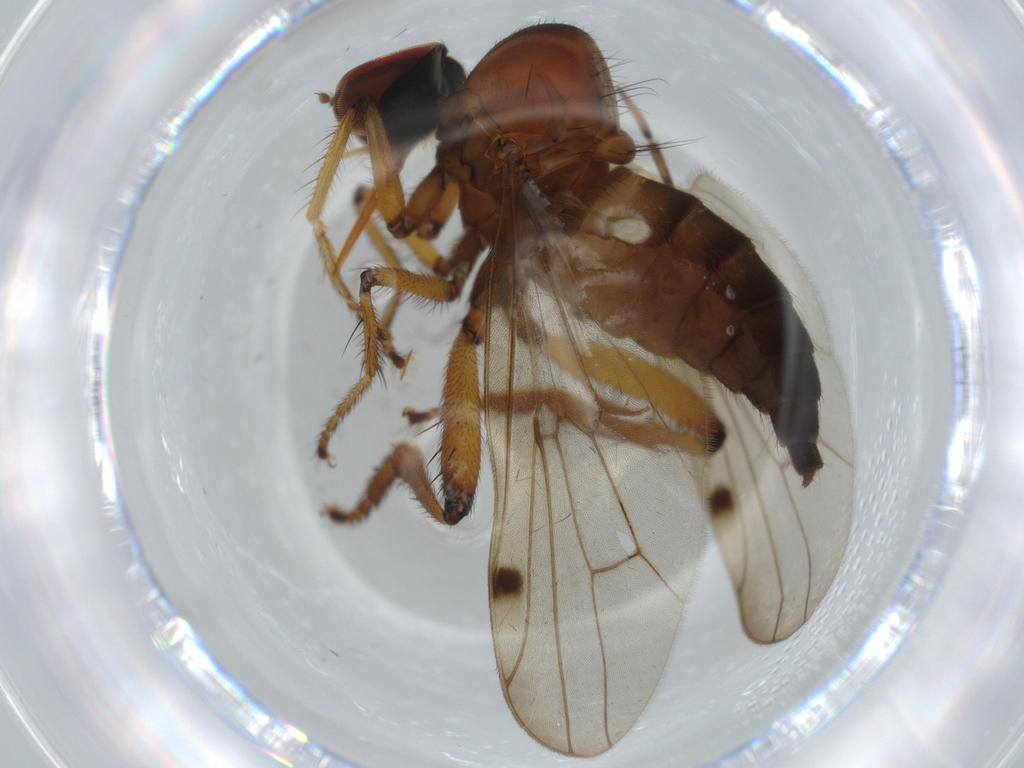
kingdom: Animalia
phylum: Arthropoda
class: Insecta
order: Diptera
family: Hybotidae
